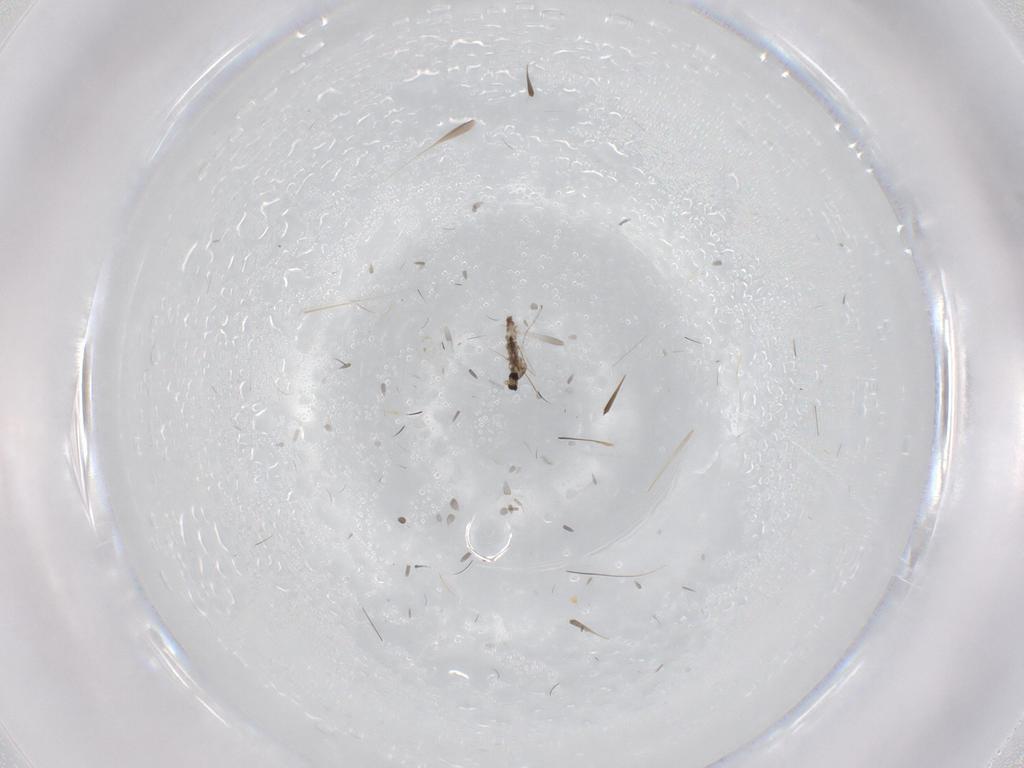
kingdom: Animalia
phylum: Arthropoda
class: Insecta
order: Diptera
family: Cecidomyiidae
